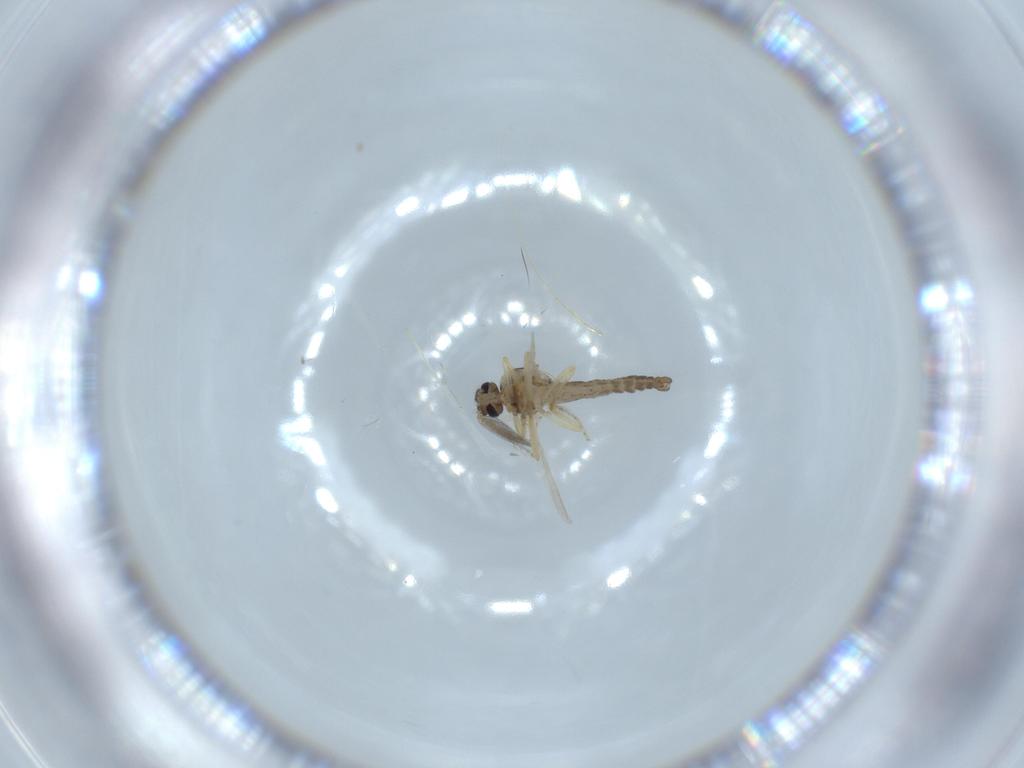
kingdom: Animalia
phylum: Arthropoda
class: Insecta
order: Diptera
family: Ceratopogonidae
